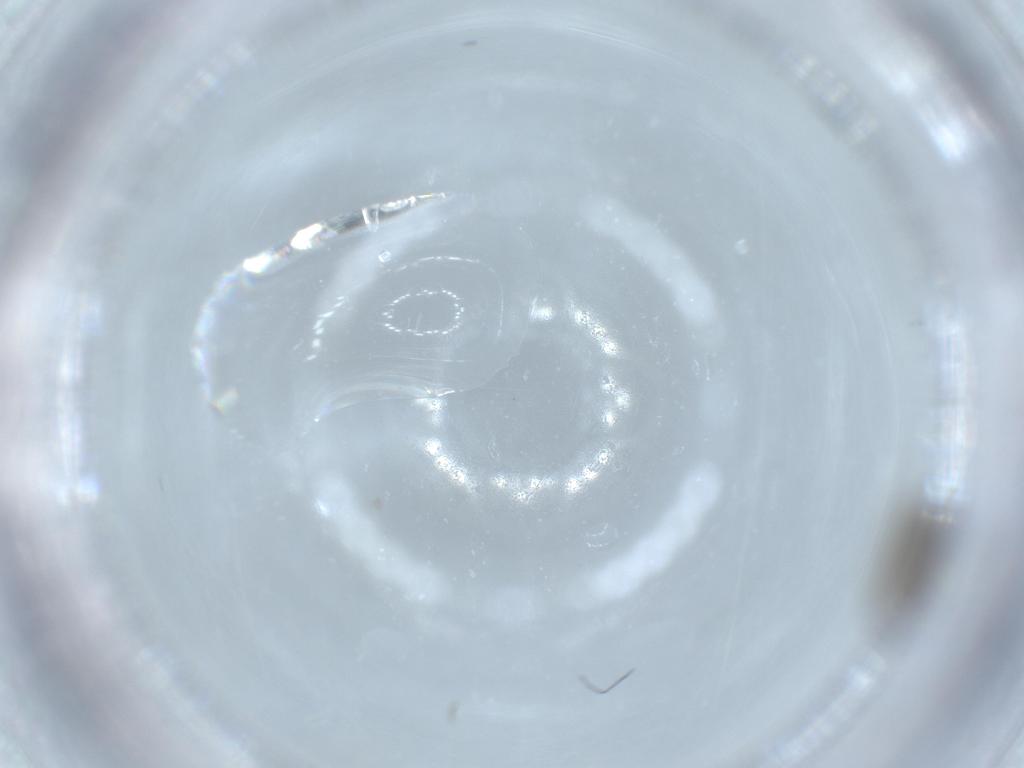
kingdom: Animalia
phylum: Arthropoda
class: Insecta
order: Diptera
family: Phoridae
